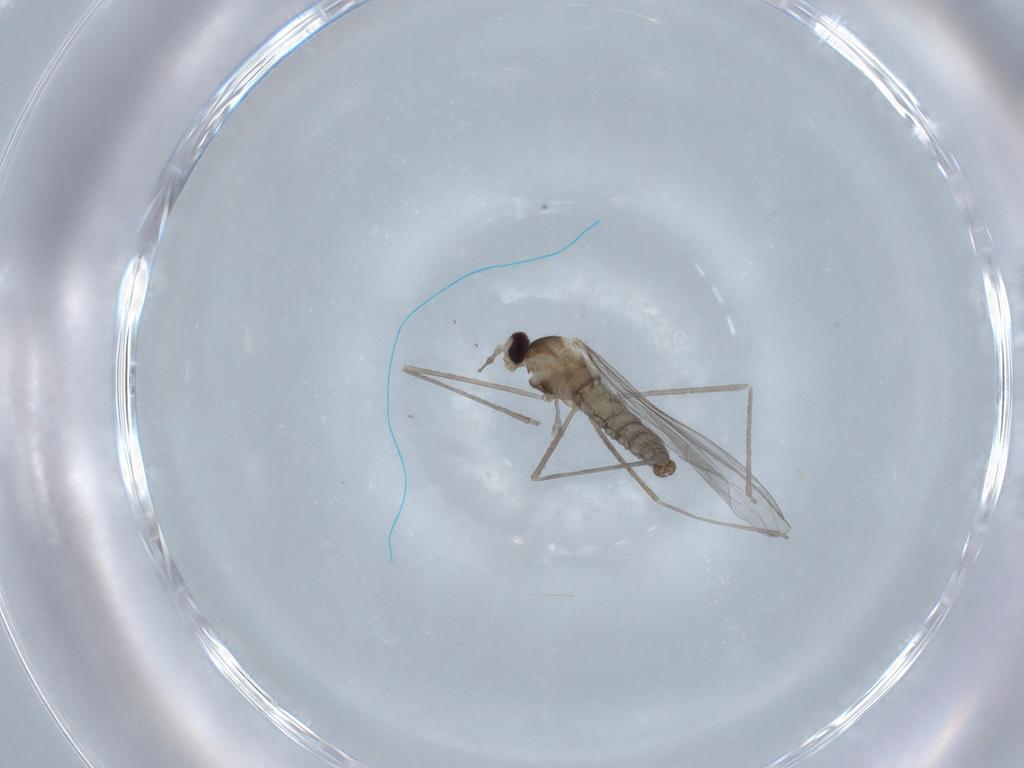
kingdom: Animalia
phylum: Arthropoda
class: Insecta
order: Diptera
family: Cecidomyiidae
